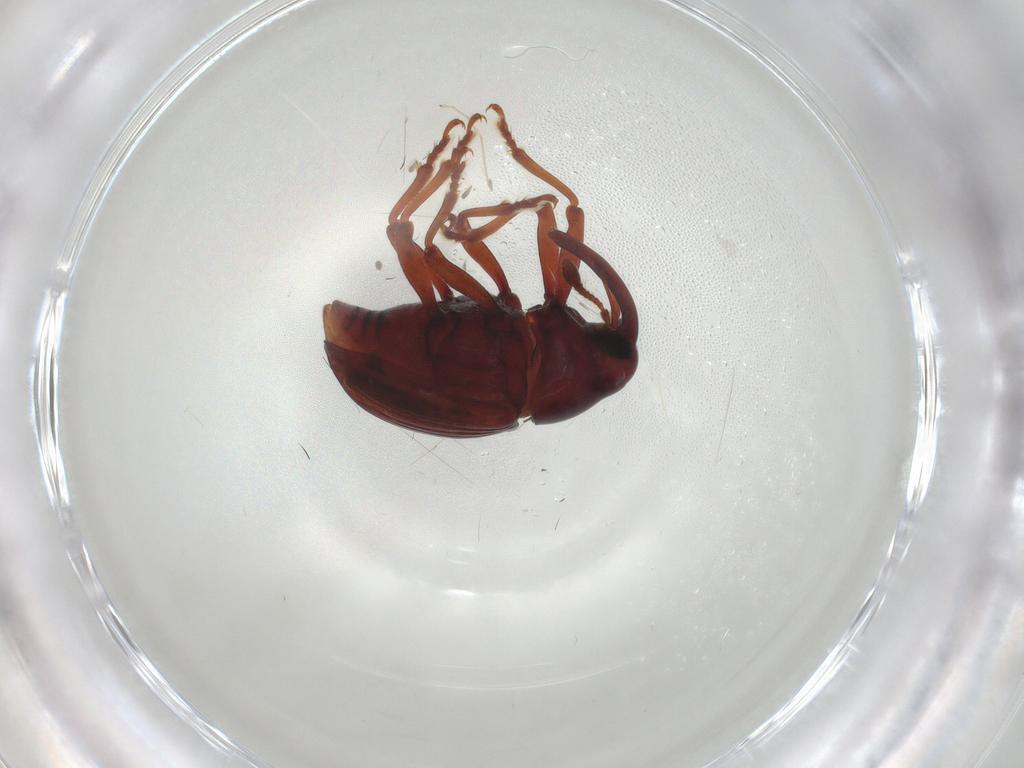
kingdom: Animalia
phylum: Arthropoda
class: Insecta
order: Coleoptera
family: Curculionidae
